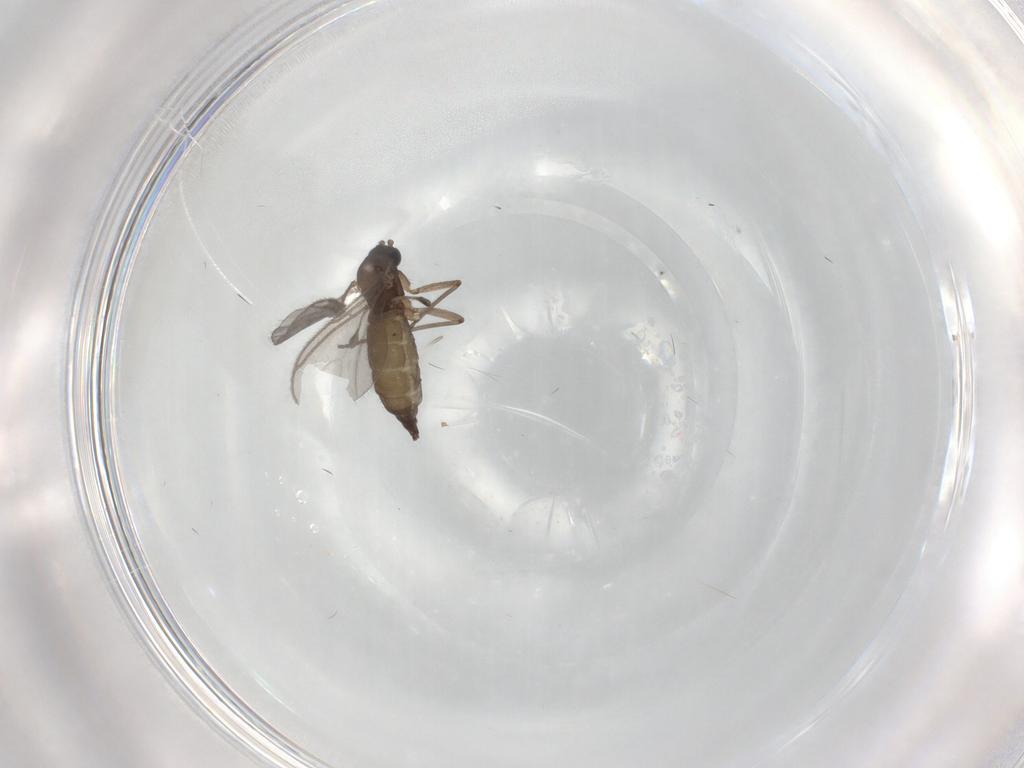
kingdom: Animalia
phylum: Arthropoda
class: Insecta
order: Diptera
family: Sciaridae
